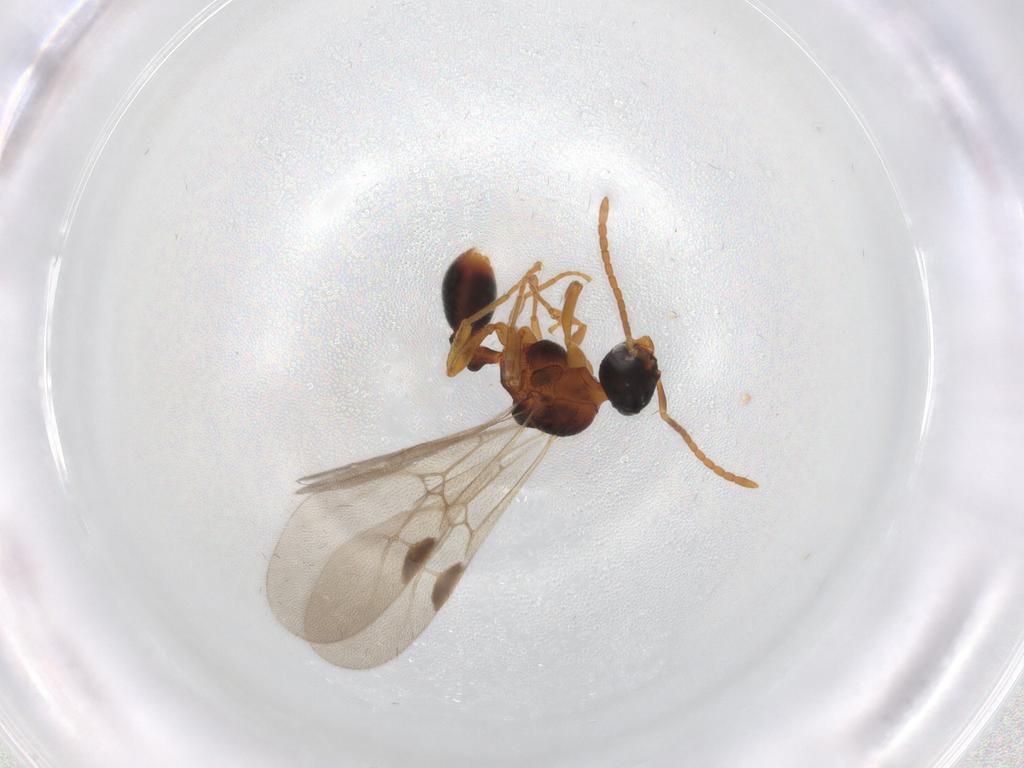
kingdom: Animalia
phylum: Arthropoda
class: Insecta
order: Hymenoptera
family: Formicidae
